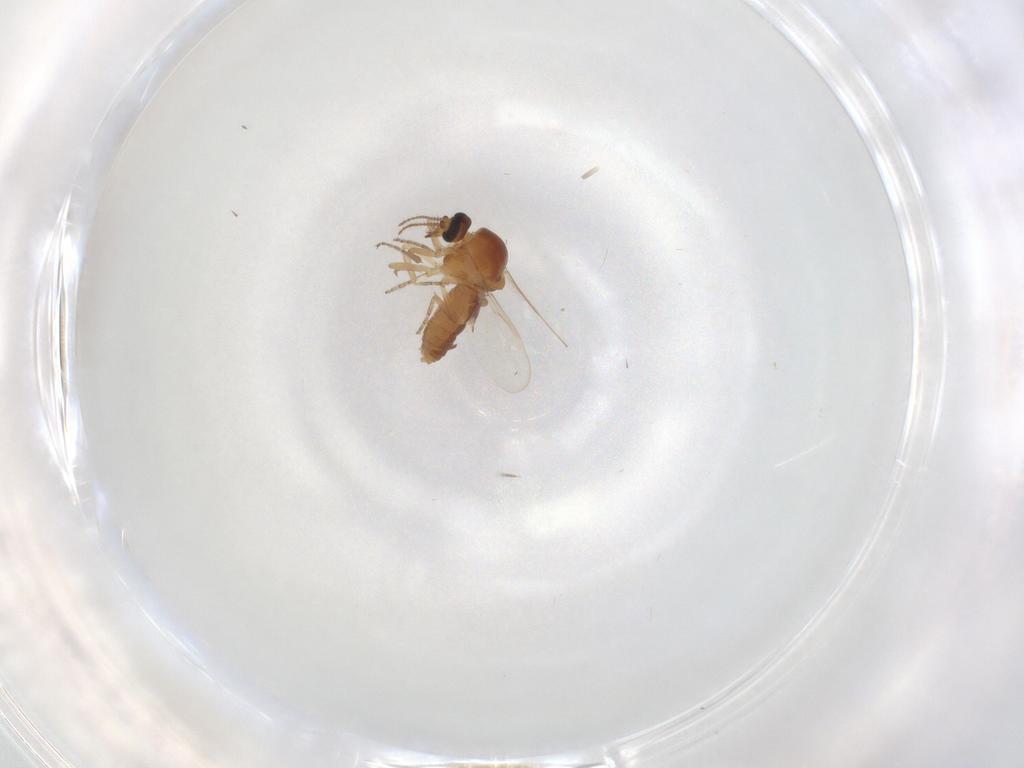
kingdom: Animalia
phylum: Arthropoda
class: Insecta
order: Diptera
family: Ceratopogonidae
